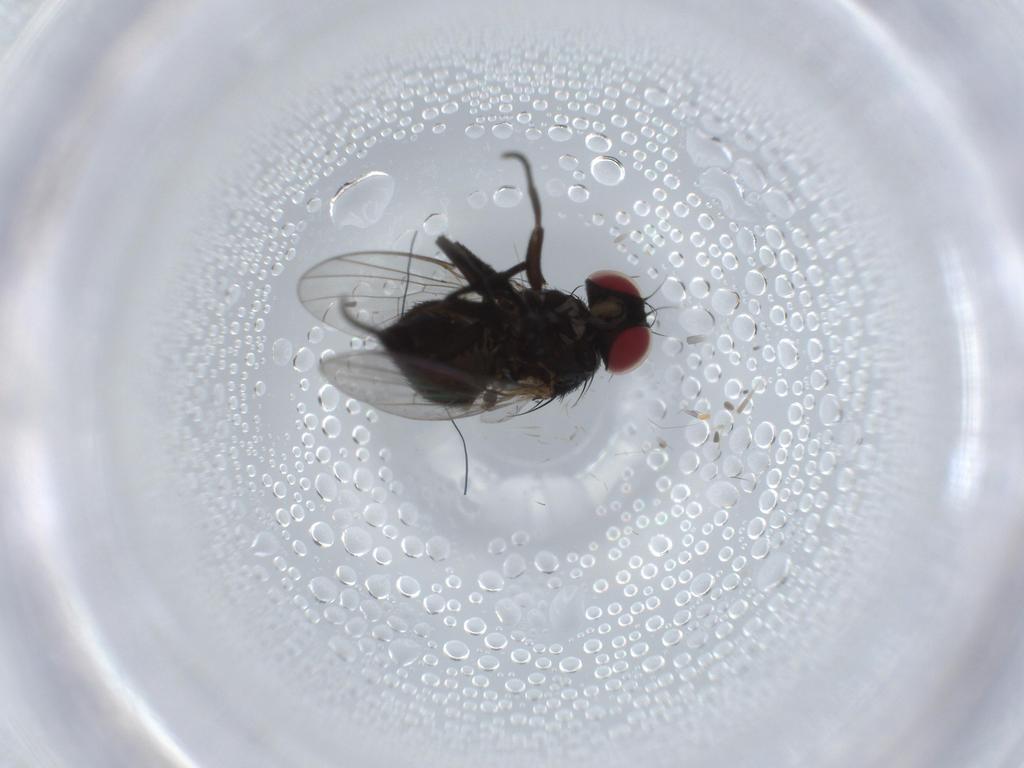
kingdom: Animalia
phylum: Arthropoda
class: Insecta
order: Diptera
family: Agromyzidae
